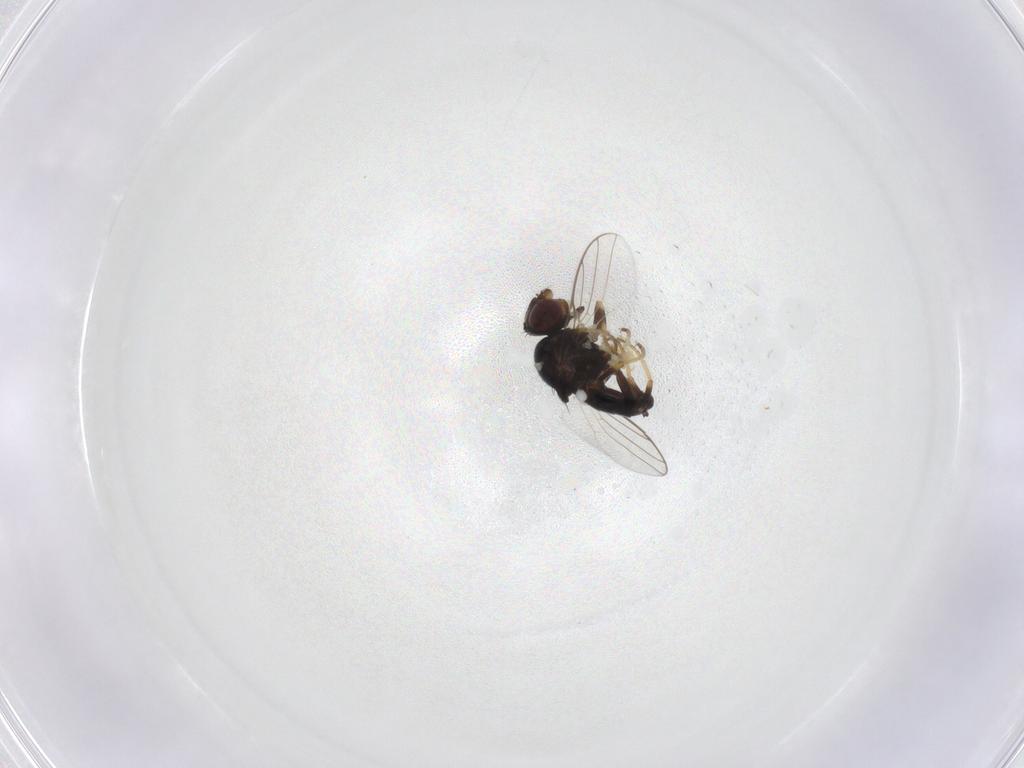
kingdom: Animalia
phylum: Arthropoda
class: Insecta
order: Diptera
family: Chloropidae
